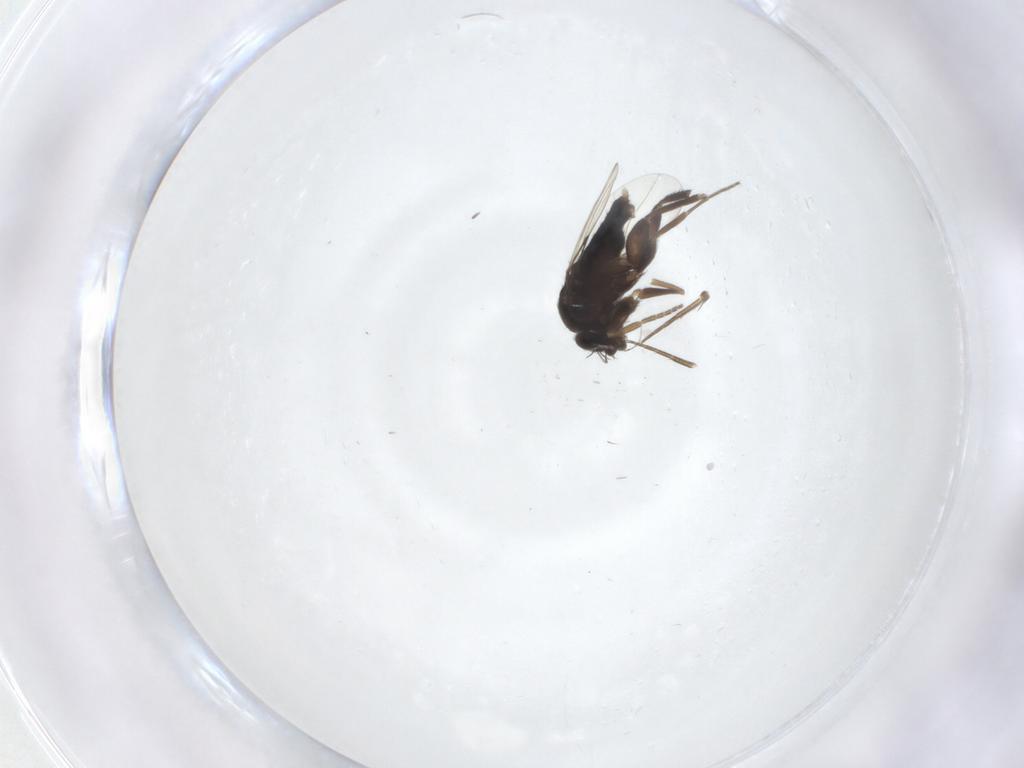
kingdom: Animalia
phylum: Arthropoda
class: Insecta
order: Diptera
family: Phoridae
